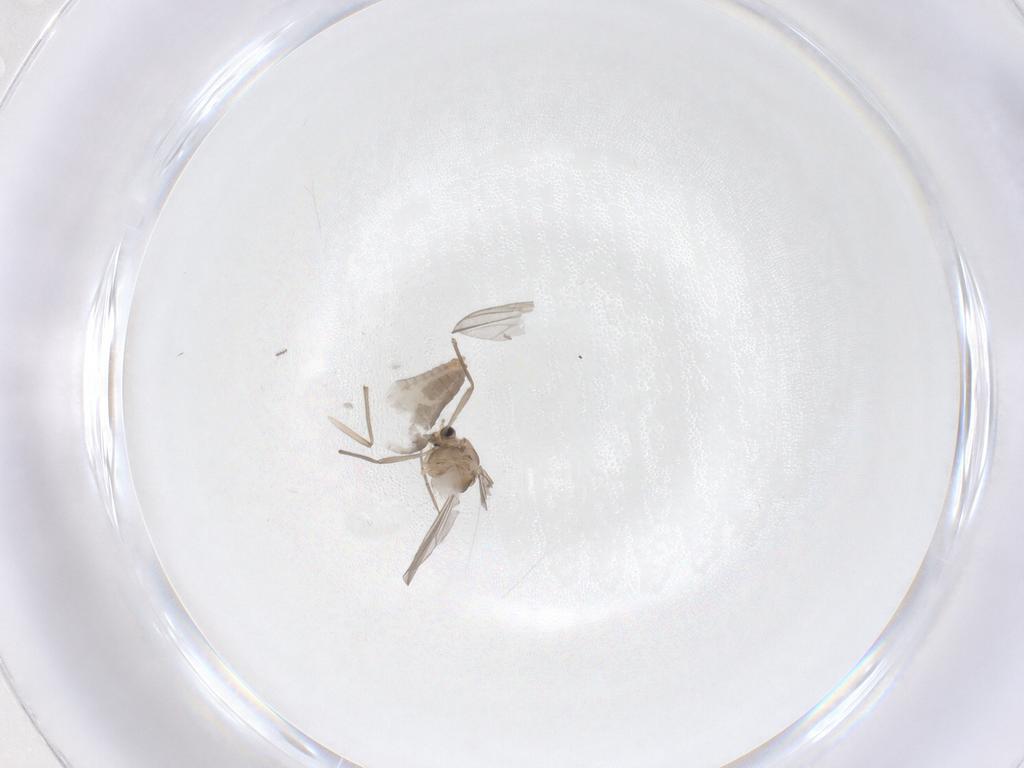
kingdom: Animalia
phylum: Arthropoda
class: Insecta
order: Diptera
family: Chironomidae
